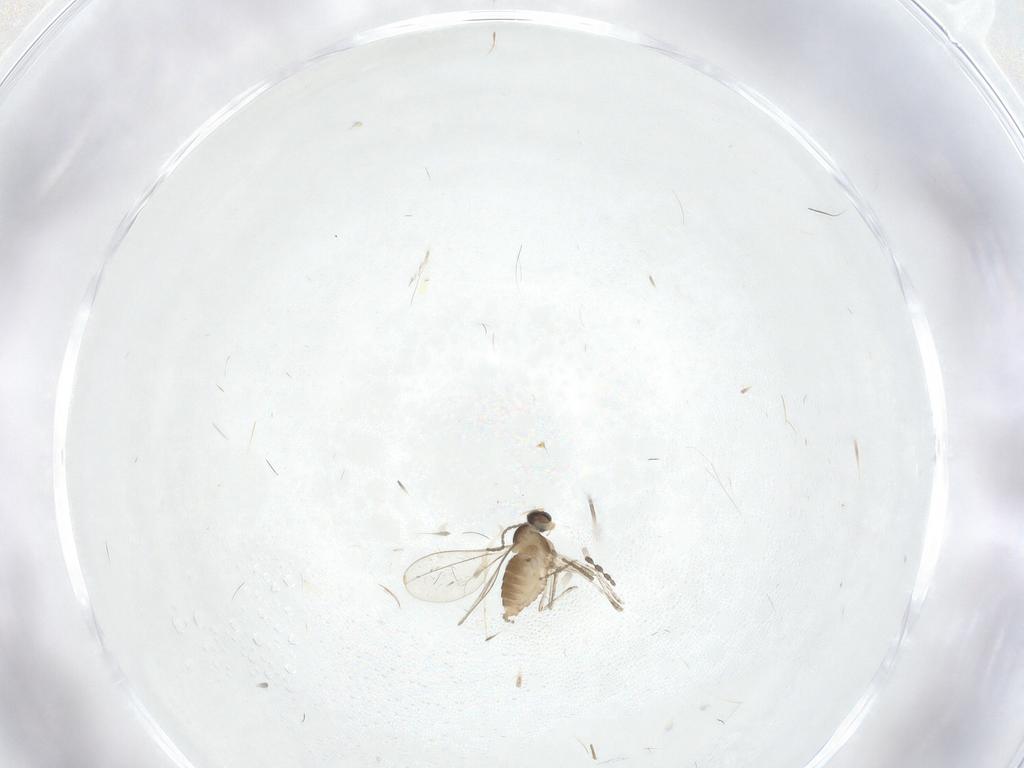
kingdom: Animalia
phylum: Arthropoda
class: Insecta
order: Diptera
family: Cecidomyiidae
